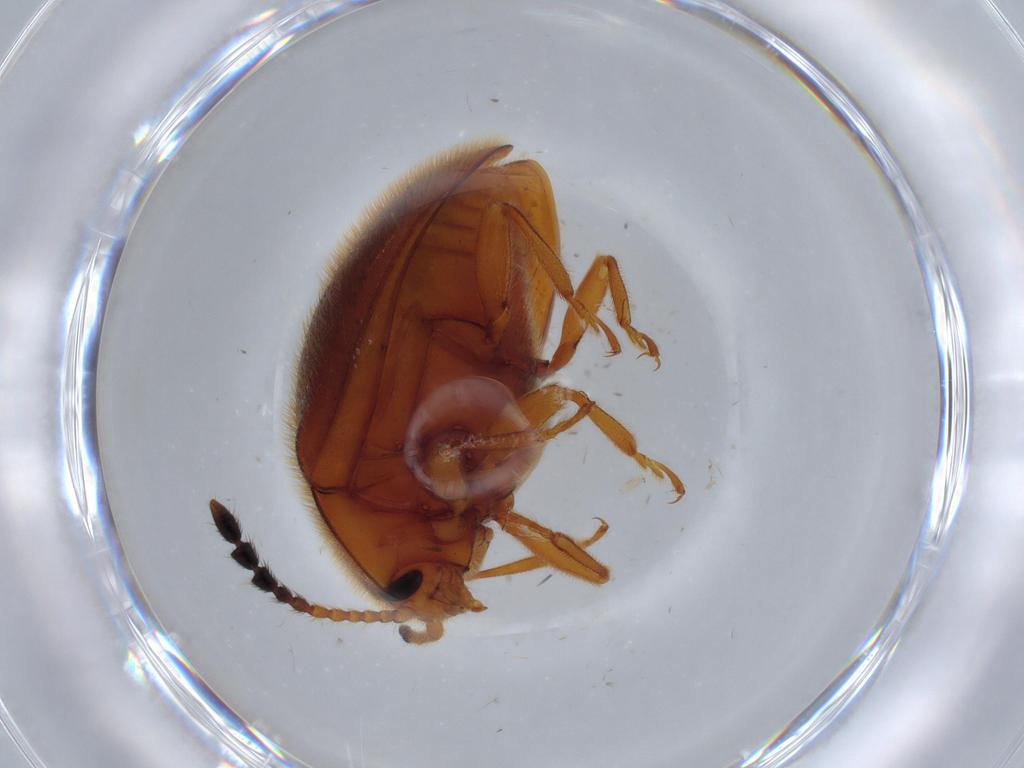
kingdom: Animalia
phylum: Arthropoda
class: Insecta
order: Coleoptera
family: Endomychidae
